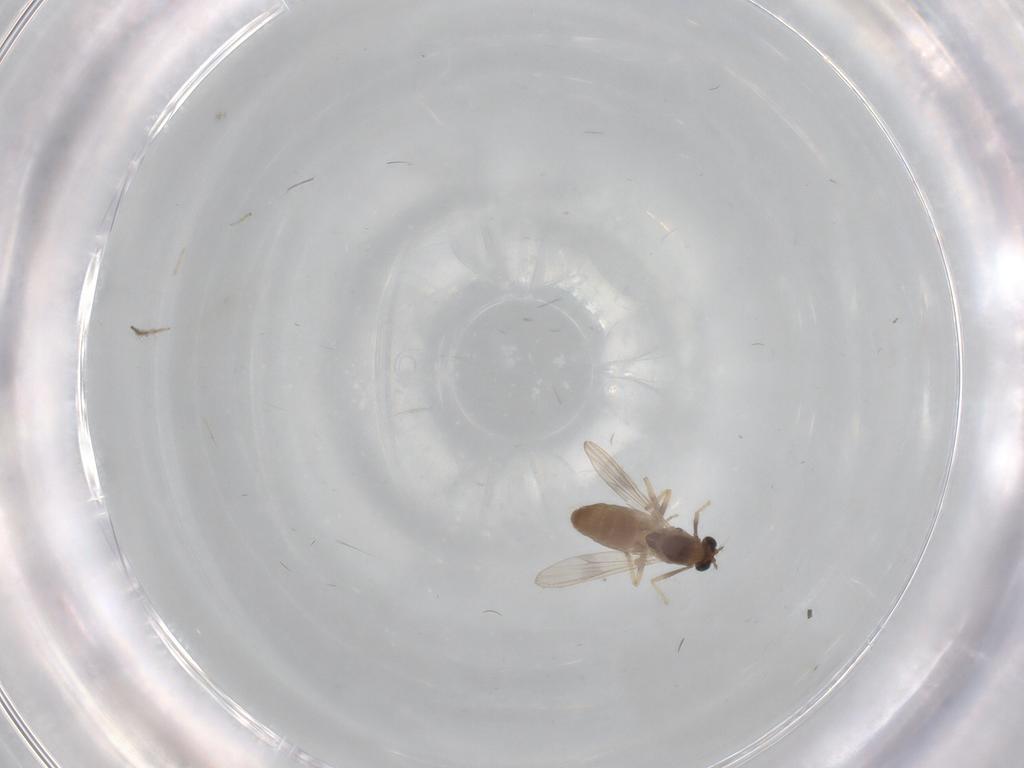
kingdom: Animalia
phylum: Arthropoda
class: Insecta
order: Diptera
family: Chironomidae
